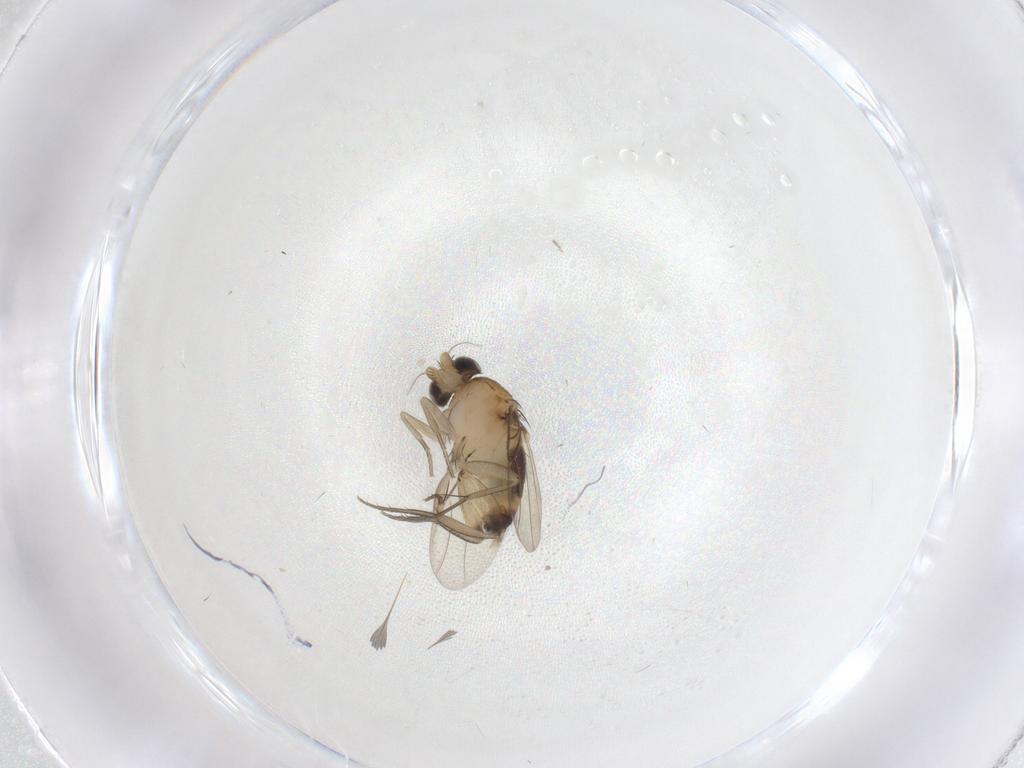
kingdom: Animalia
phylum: Arthropoda
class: Insecta
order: Diptera
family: Phoridae
